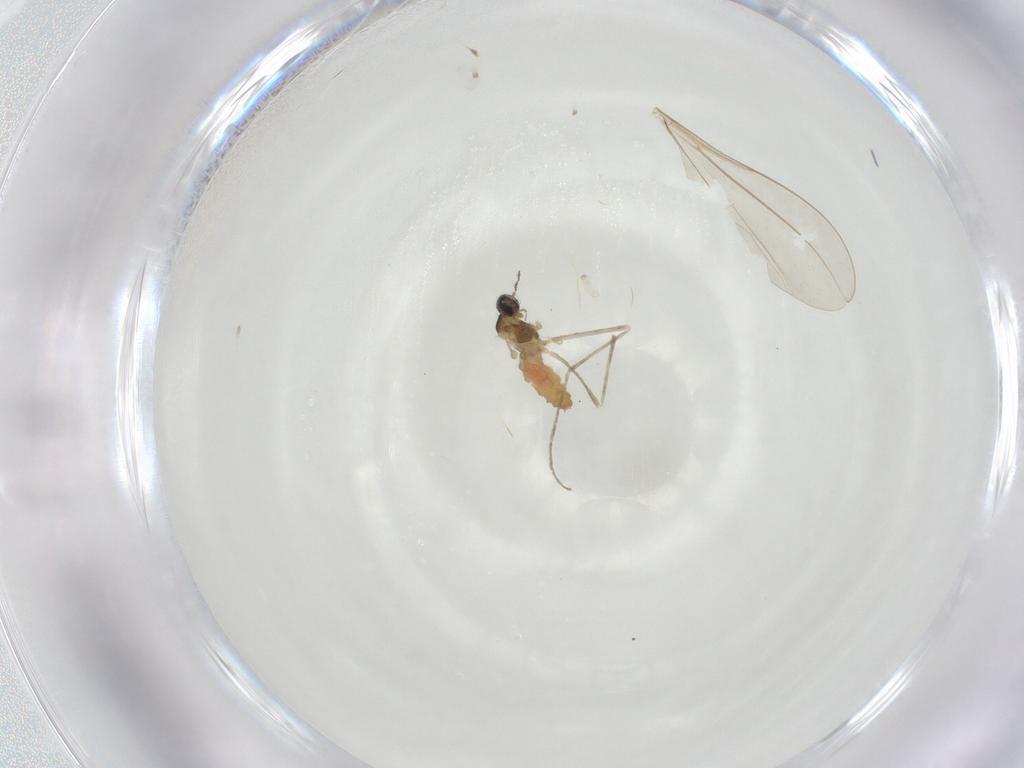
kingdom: Animalia
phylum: Arthropoda
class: Insecta
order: Diptera
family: Cecidomyiidae
